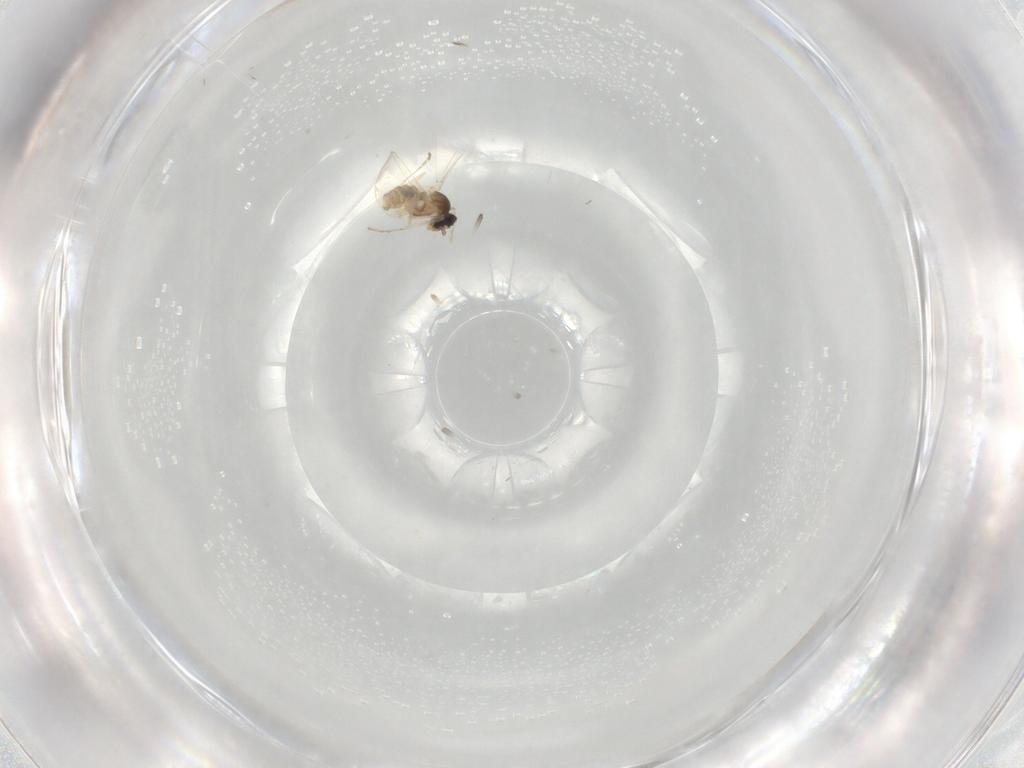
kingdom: Animalia
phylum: Arthropoda
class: Insecta
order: Diptera
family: Cecidomyiidae
